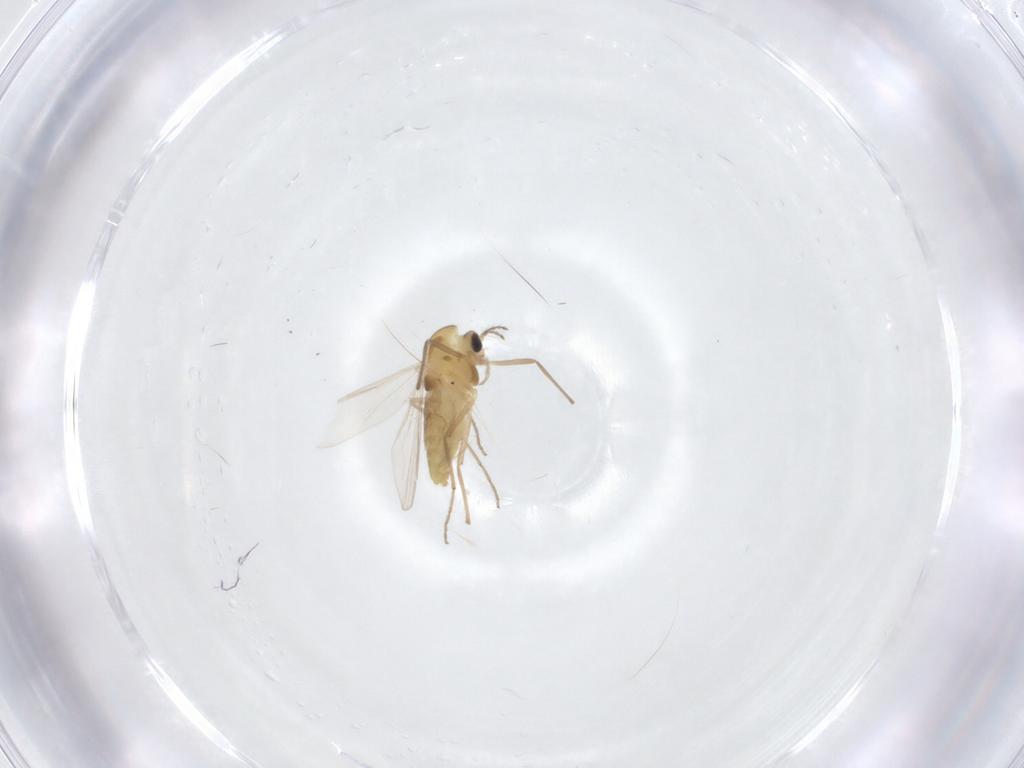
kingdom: Animalia
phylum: Arthropoda
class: Insecta
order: Diptera
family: Chironomidae
